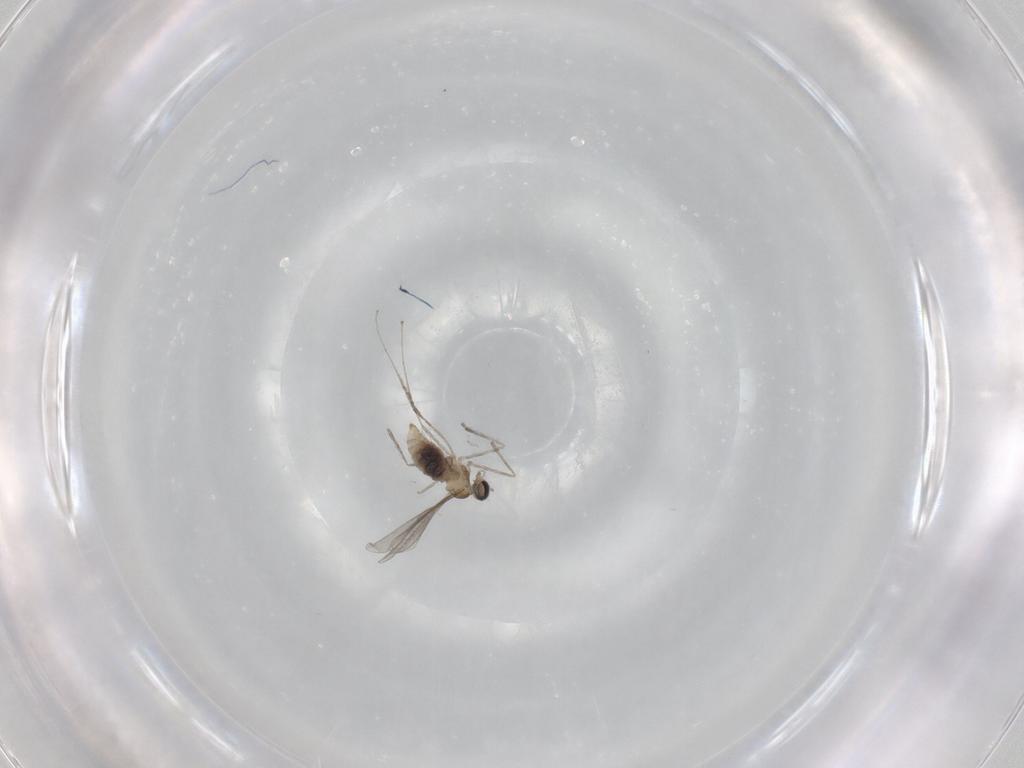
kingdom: Animalia
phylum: Arthropoda
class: Insecta
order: Diptera
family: Cecidomyiidae
